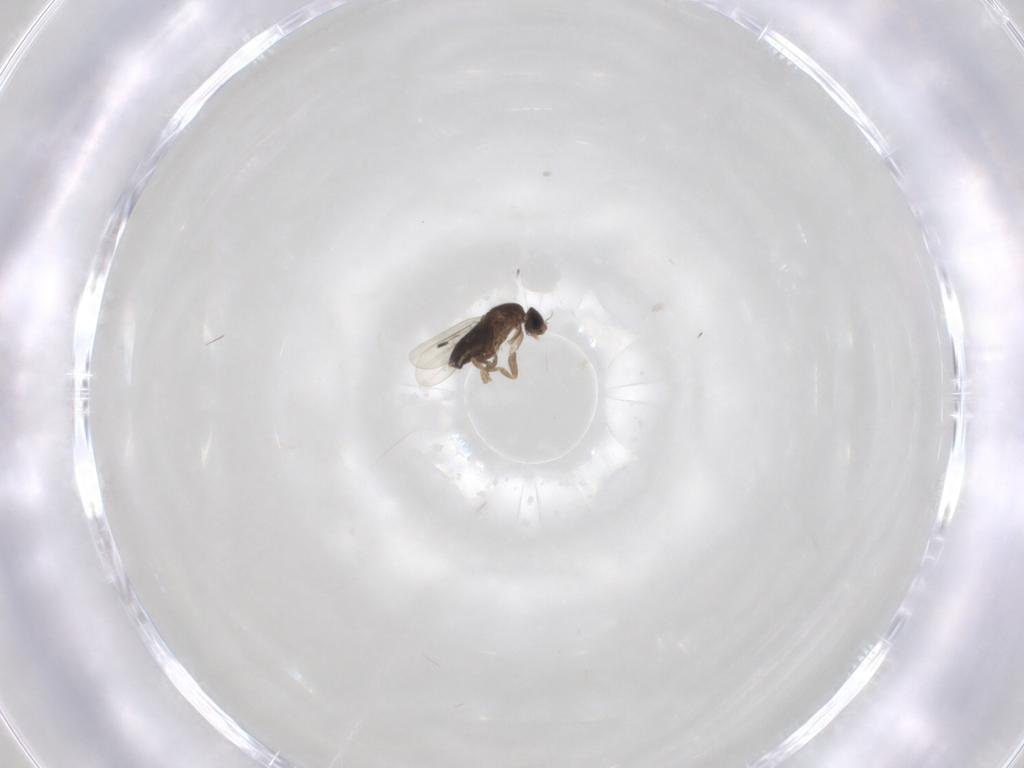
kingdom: Animalia
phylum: Arthropoda
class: Insecta
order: Diptera
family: Phoridae
